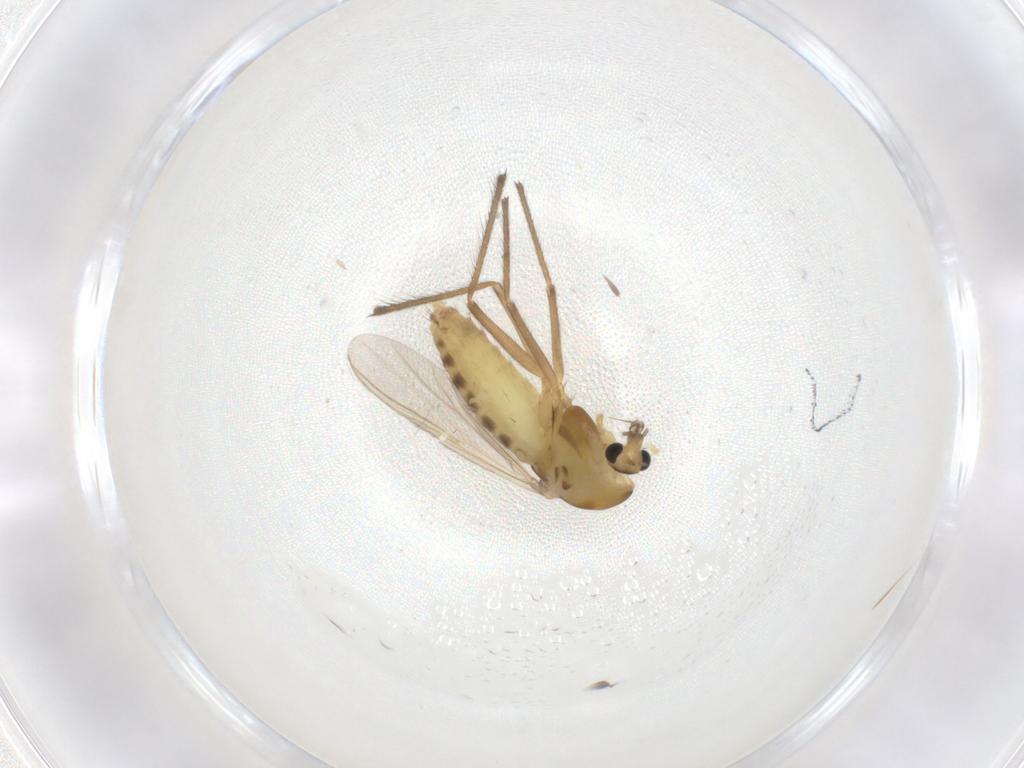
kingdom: Animalia
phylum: Arthropoda
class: Insecta
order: Diptera
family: Chironomidae
